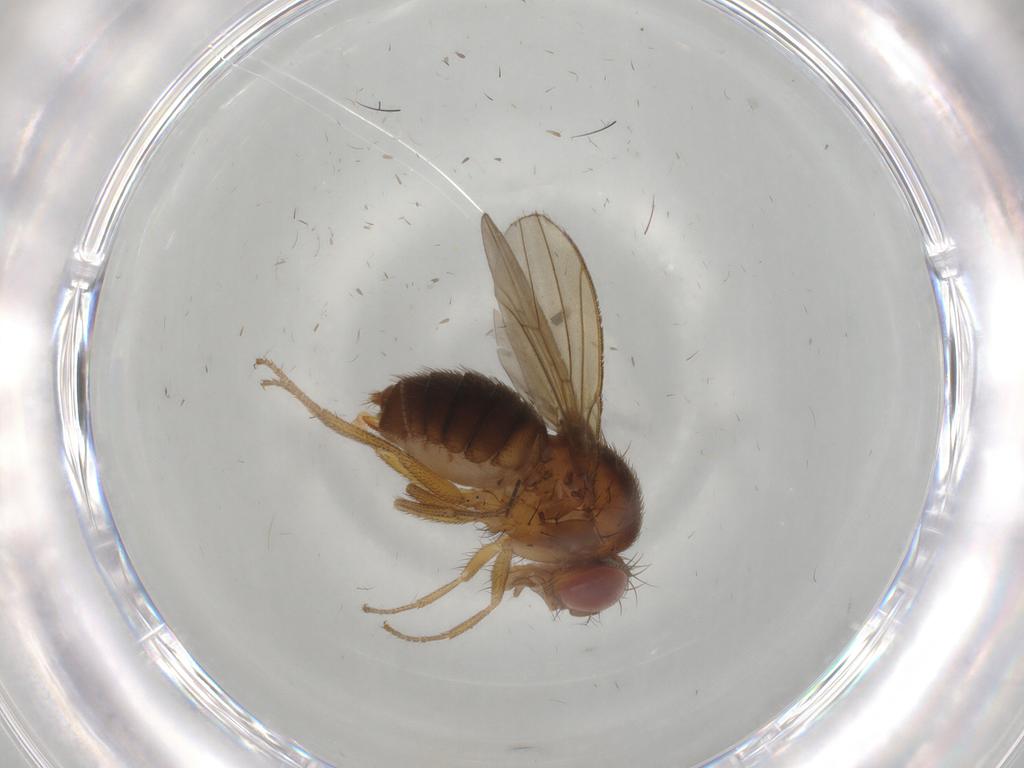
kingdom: Animalia
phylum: Arthropoda
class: Insecta
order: Diptera
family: Drosophilidae
